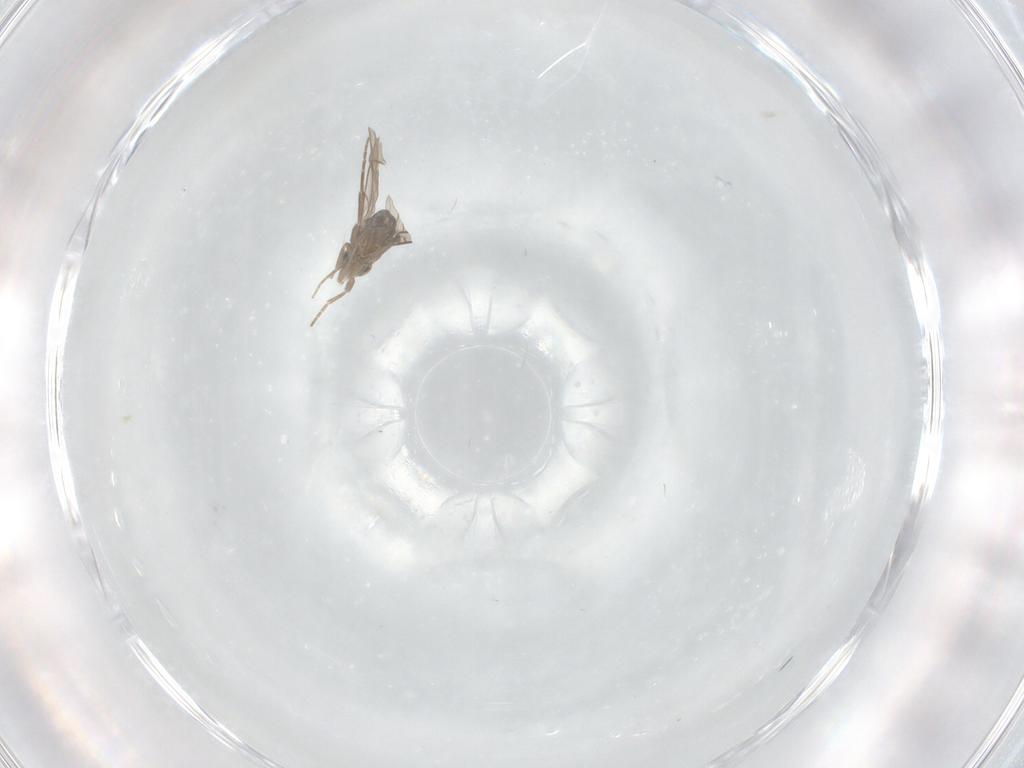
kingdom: Animalia
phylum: Arthropoda
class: Insecta
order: Diptera
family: Phoridae
